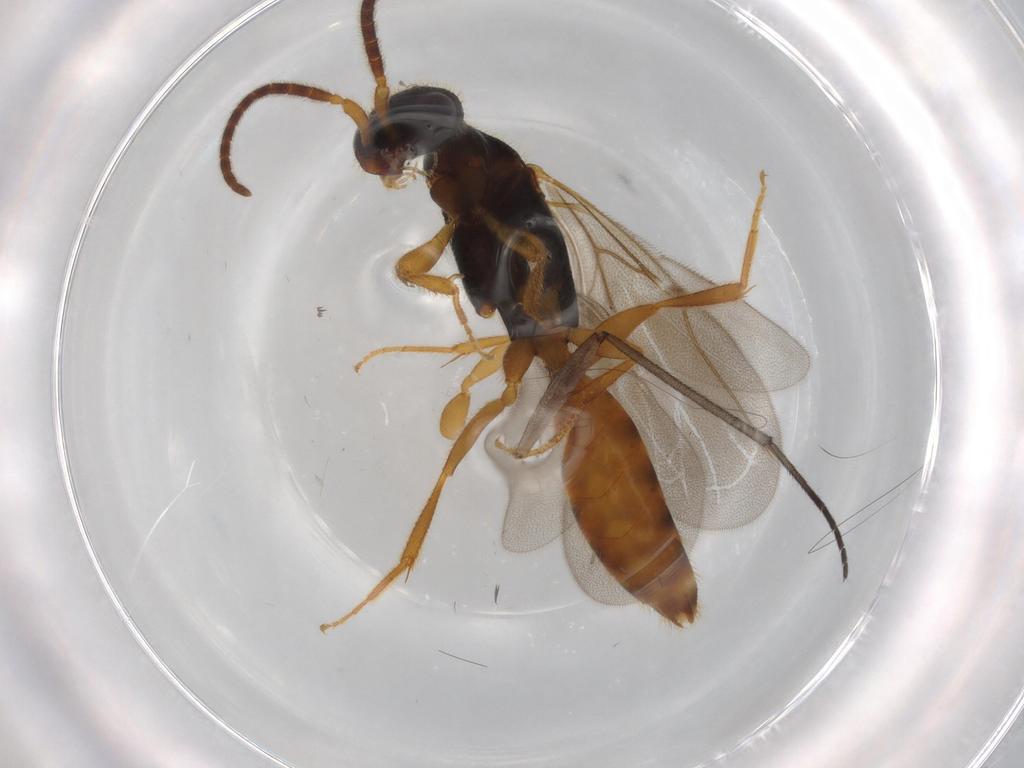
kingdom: Animalia
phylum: Arthropoda
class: Insecta
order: Hymenoptera
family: Bethylidae
